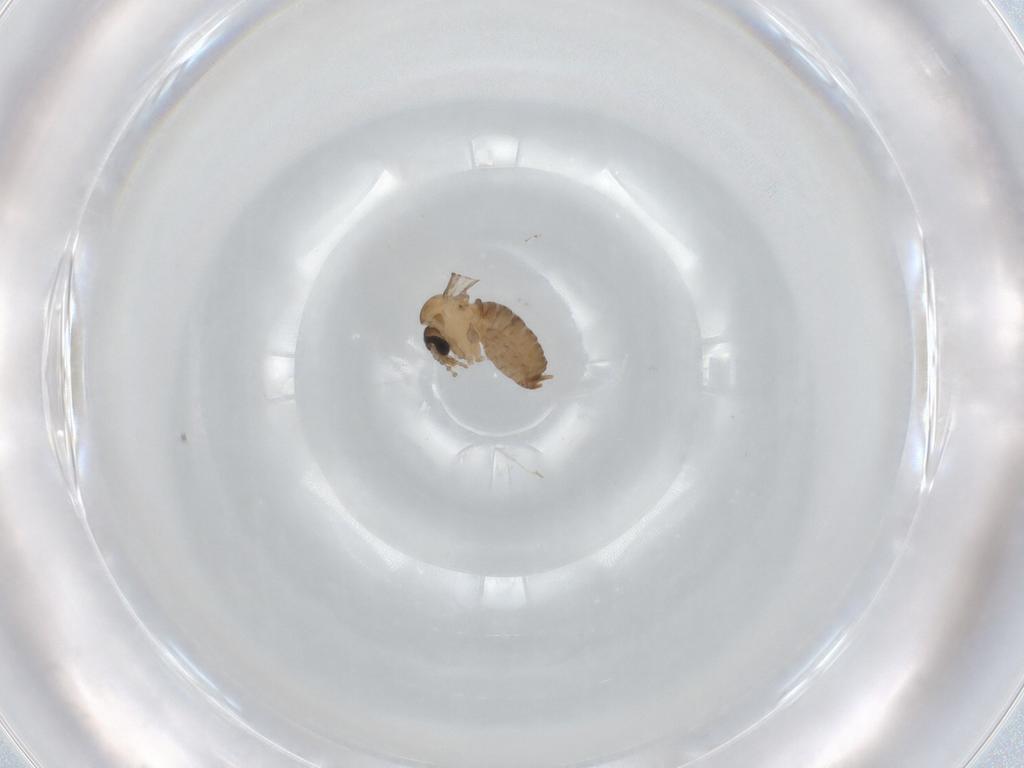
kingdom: Animalia
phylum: Arthropoda
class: Insecta
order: Diptera
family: Psychodidae
